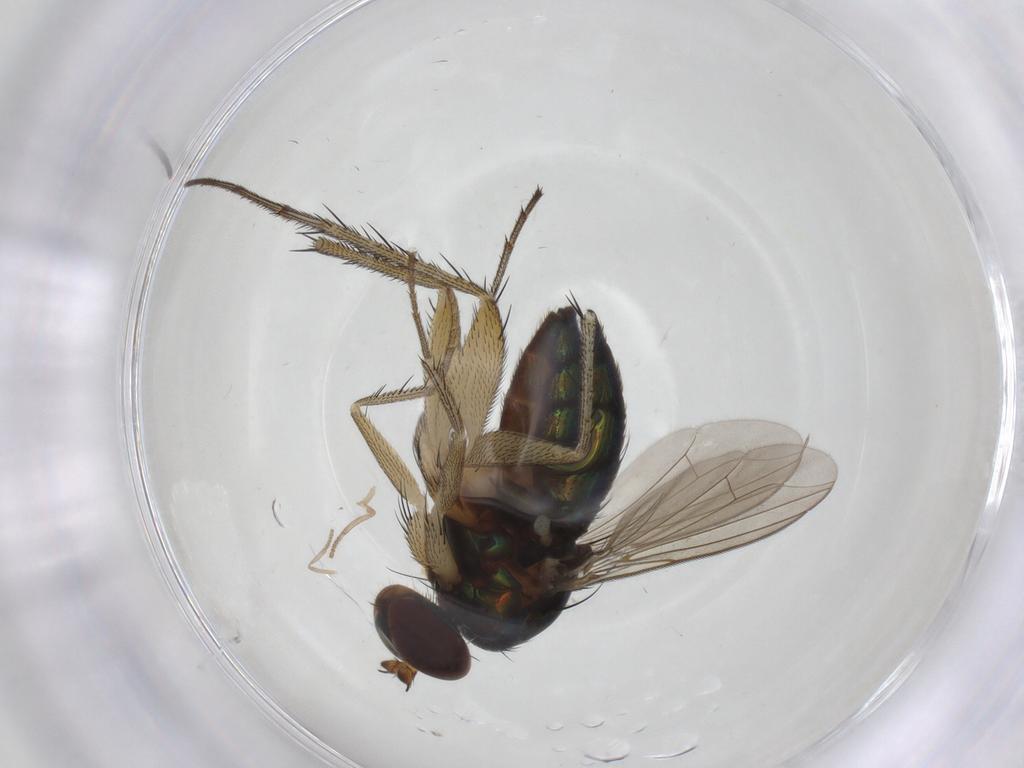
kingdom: Animalia
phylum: Arthropoda
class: Insecta
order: Diptera
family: Dolichopodidae
